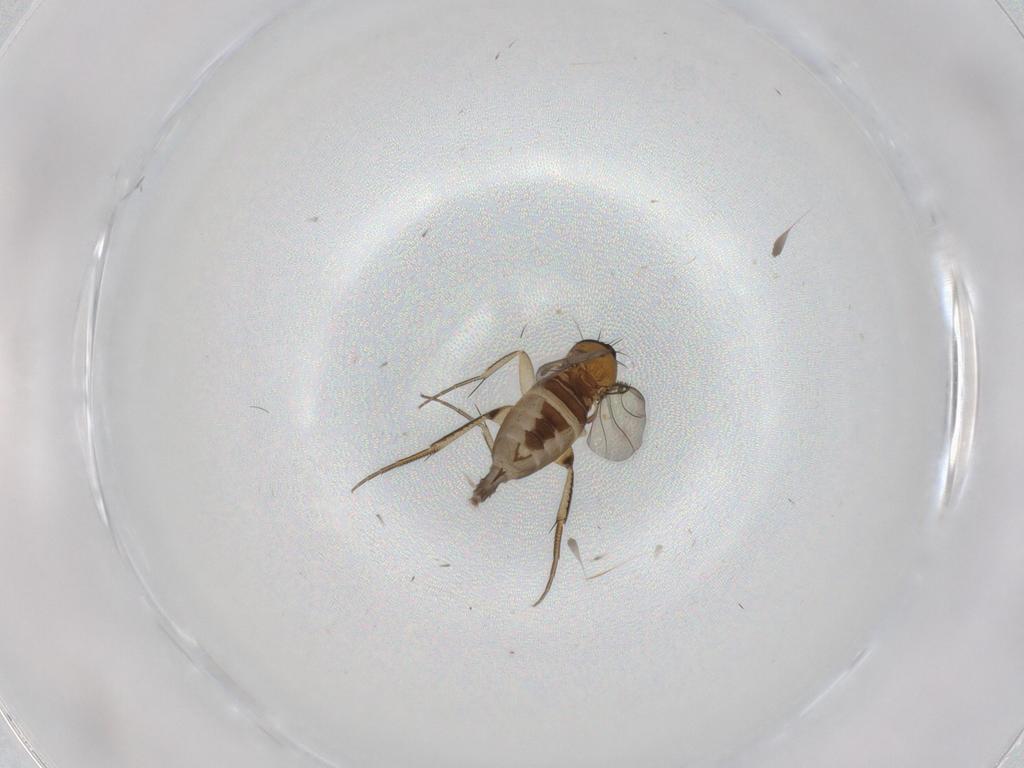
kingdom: Animalia
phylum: Arthropoda
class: Insecta
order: Diptera
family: Phoridae
